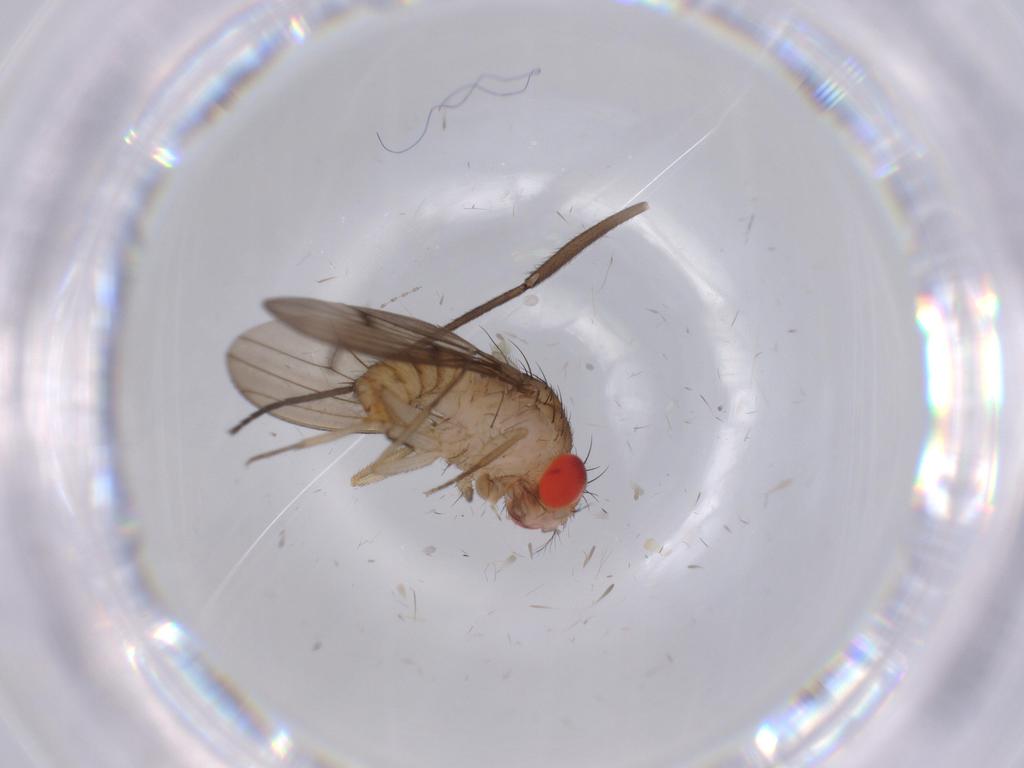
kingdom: Animalia
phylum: Arthropoda
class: Insecta
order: Diptera
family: Drosophilidae
